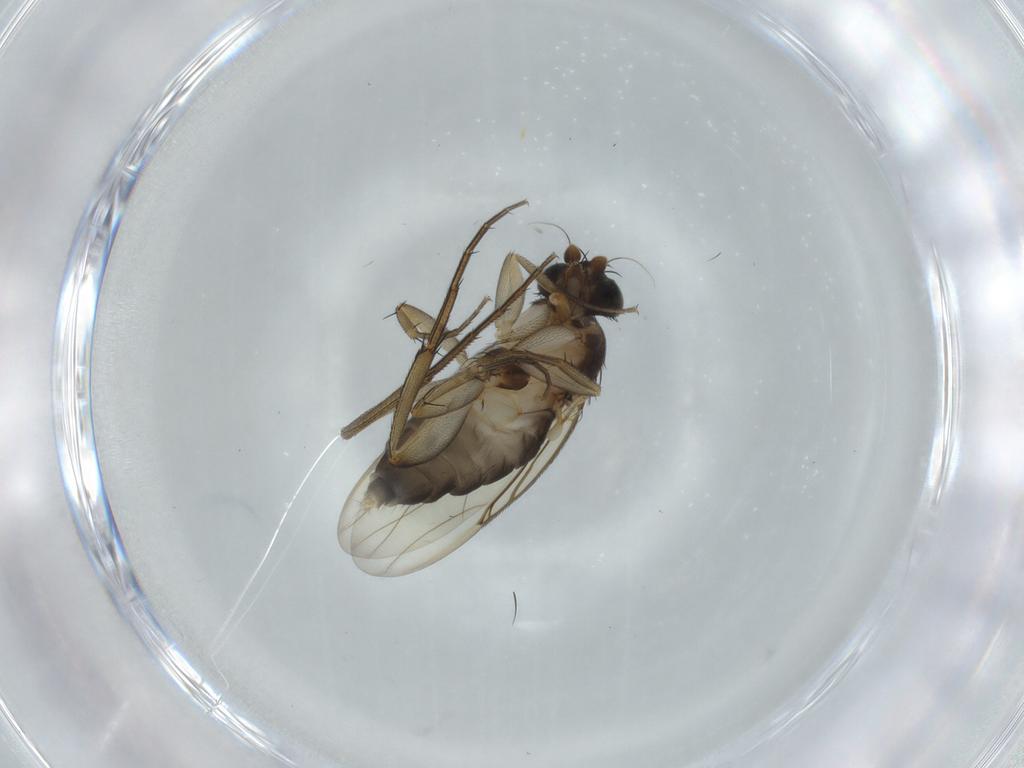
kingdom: Animalia
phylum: Arthropoda
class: Insecta
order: Diptera
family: Phoridae
